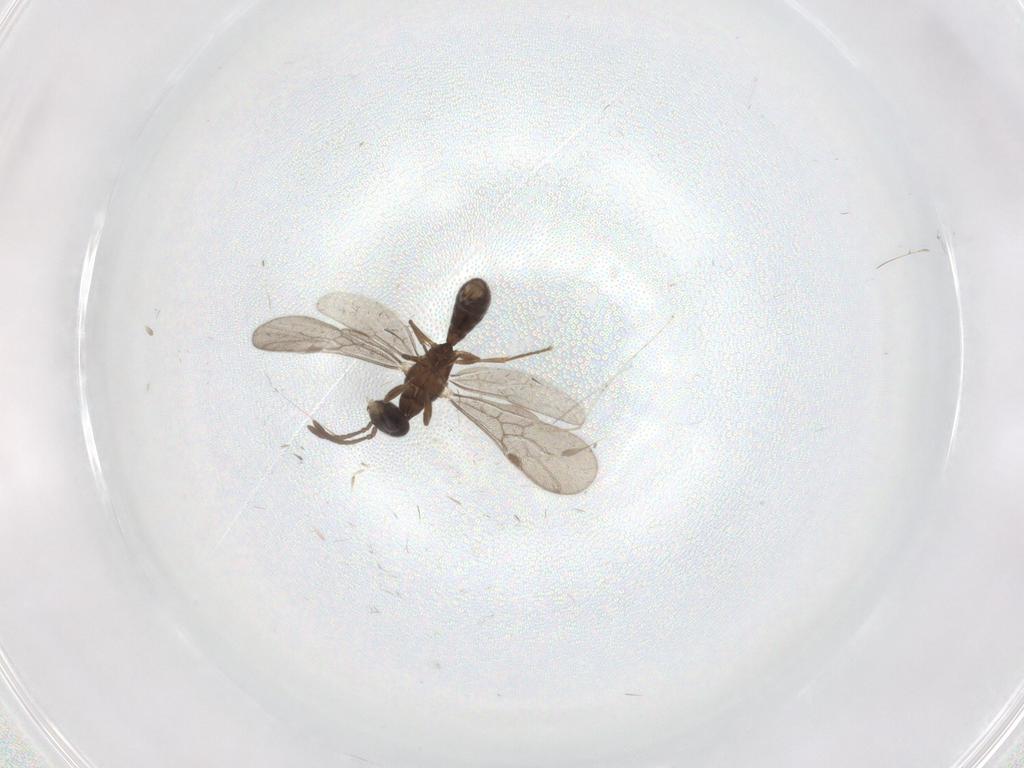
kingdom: Animalia
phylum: Arthropoda
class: Insecta
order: Hymenoptera
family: Formicidae
